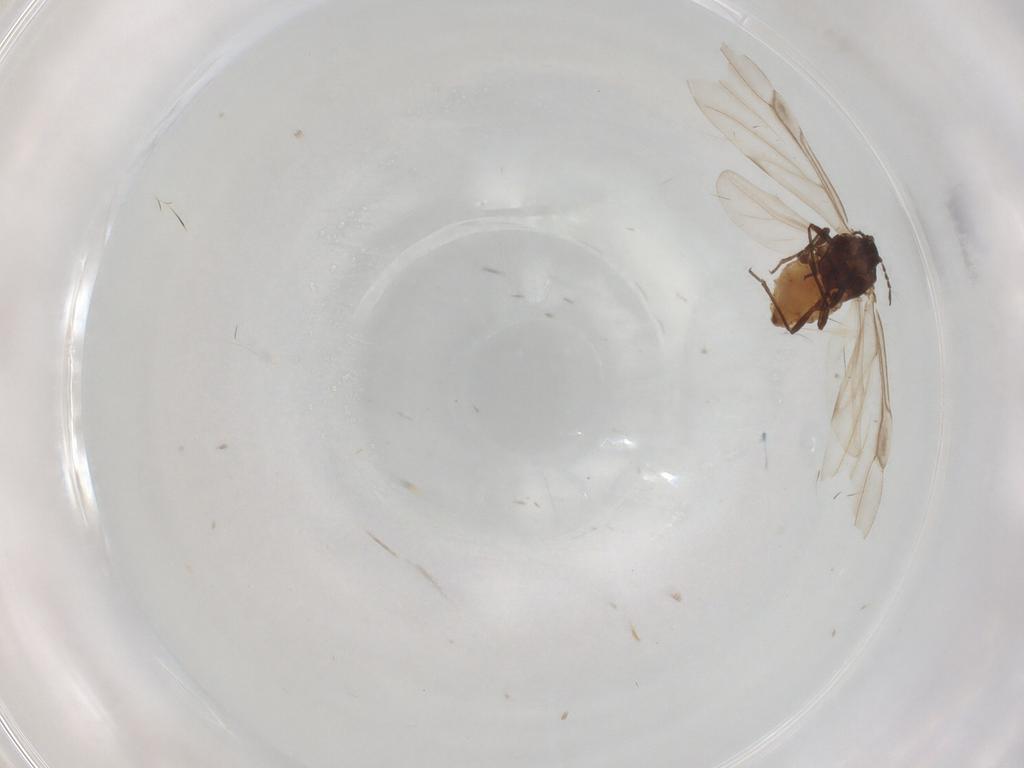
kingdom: Animalia
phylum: Arthropoda
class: Insecta
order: Hemiptera
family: Aphididae
